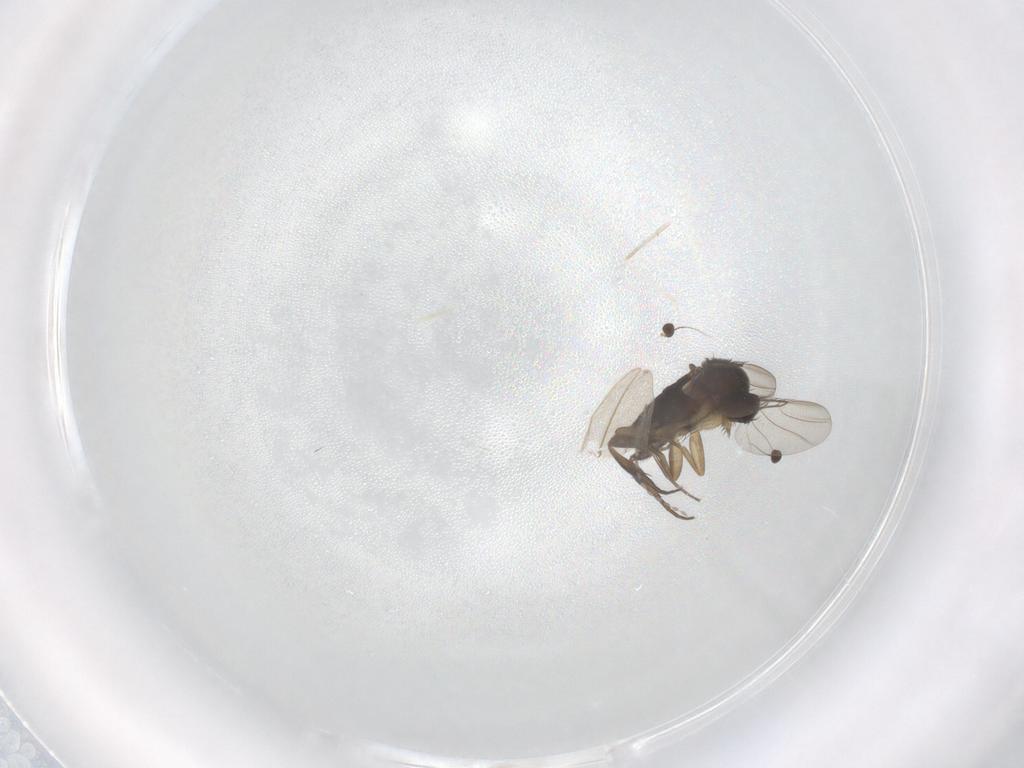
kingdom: Animalia
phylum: Arthropoda
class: Insecta
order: Diptera
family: Phoridae
